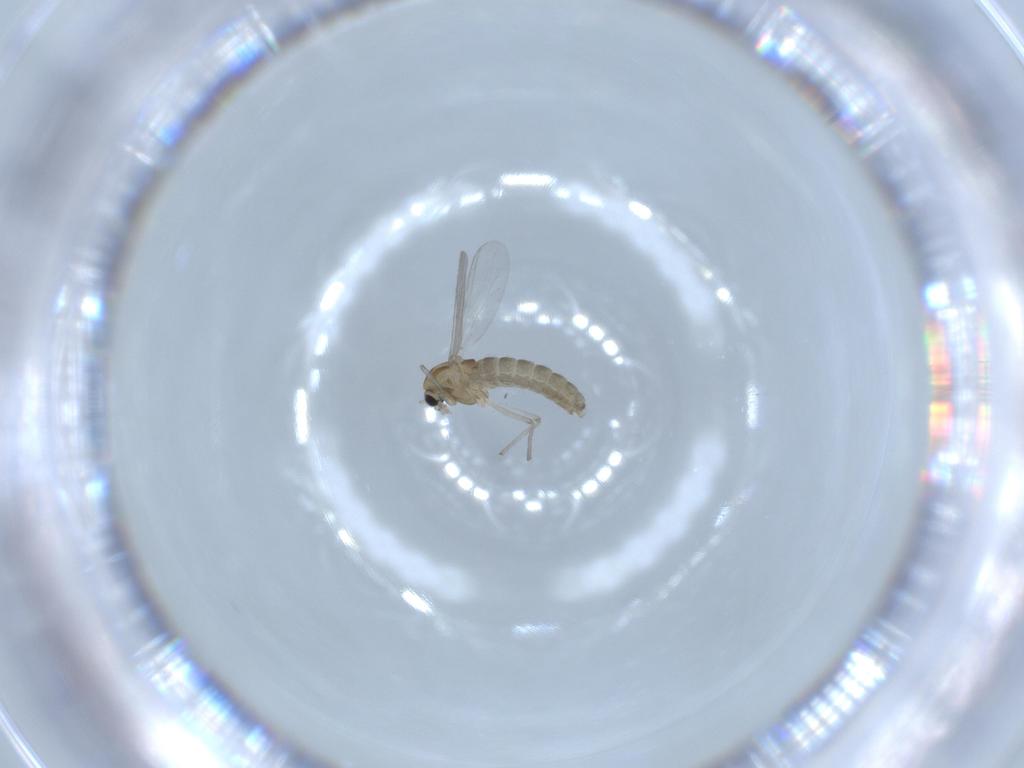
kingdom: Animalia
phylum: Arthropoda
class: Insecta
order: Diptera
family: Chironomidae
